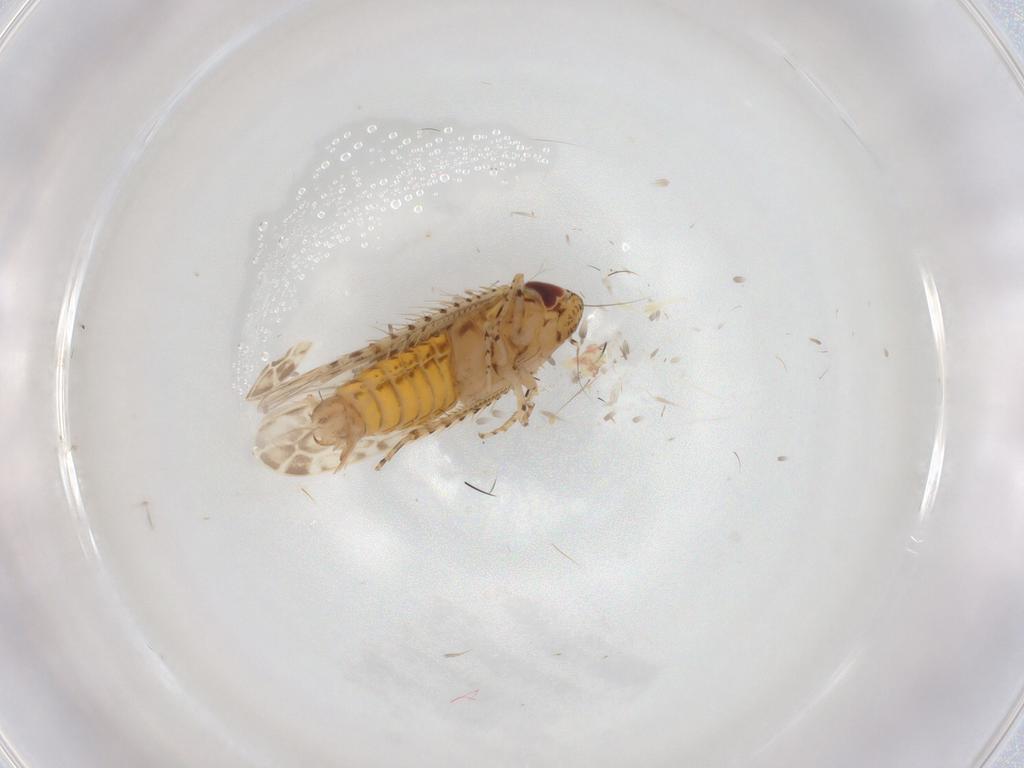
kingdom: Animalia
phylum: Arthropoda
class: Insecta
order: Hemiptera
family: Cicadellidae
